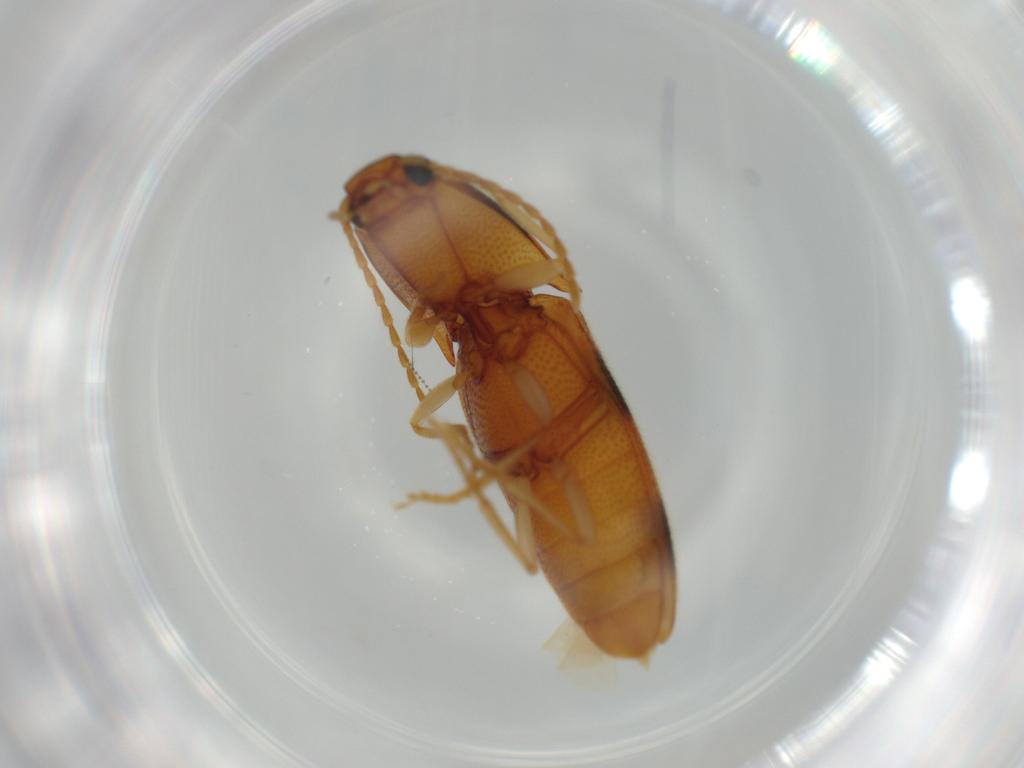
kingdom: Animalia
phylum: Arthropoda
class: Insecta
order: Coleoptera
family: Elateridae
